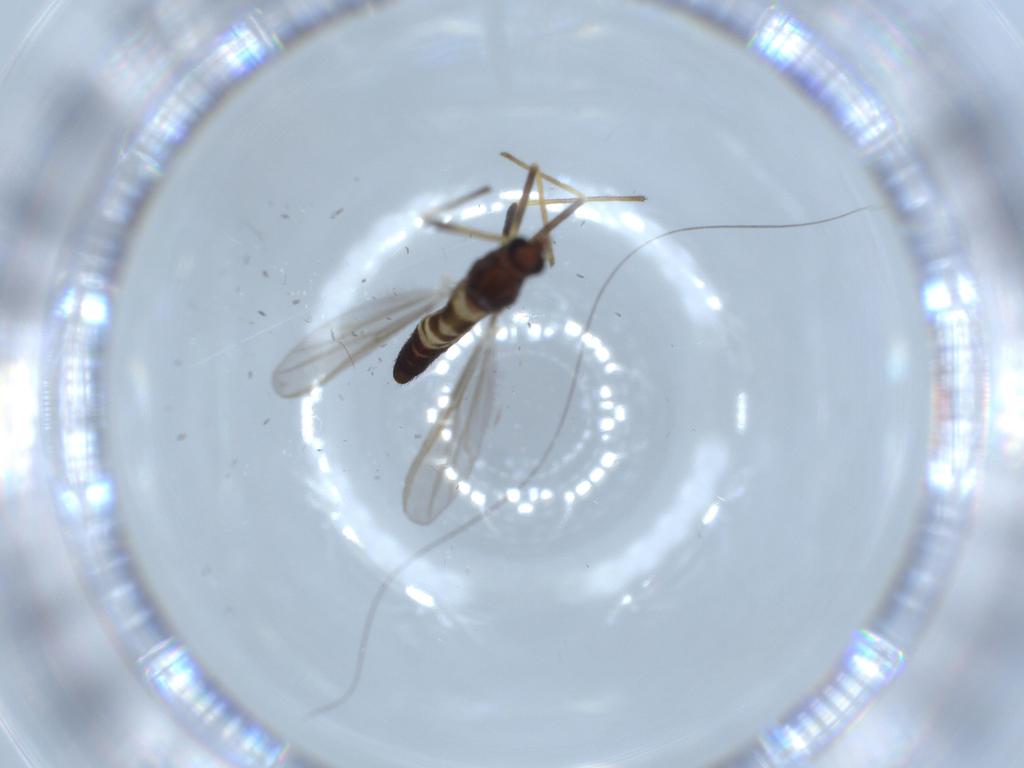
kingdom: Animalia
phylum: Arthropoda
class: Insecta
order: Diptera
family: Chironomidae
